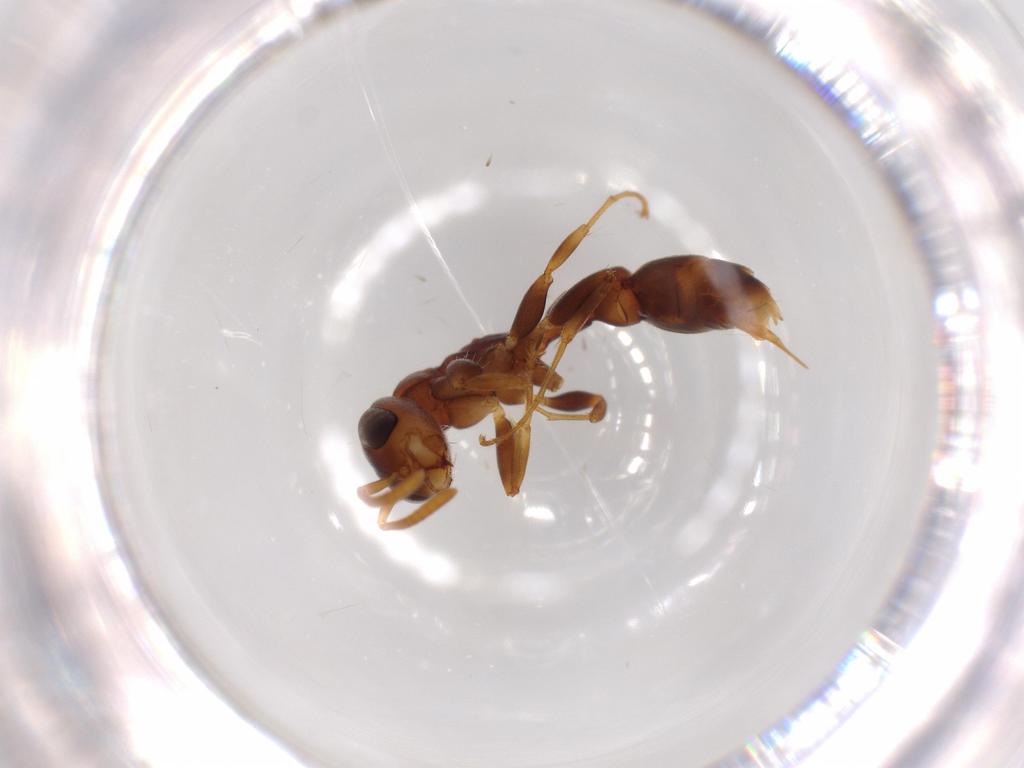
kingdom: Animalia
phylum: Arthropoda
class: Insecta
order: Hymenoptera
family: Formicidae
